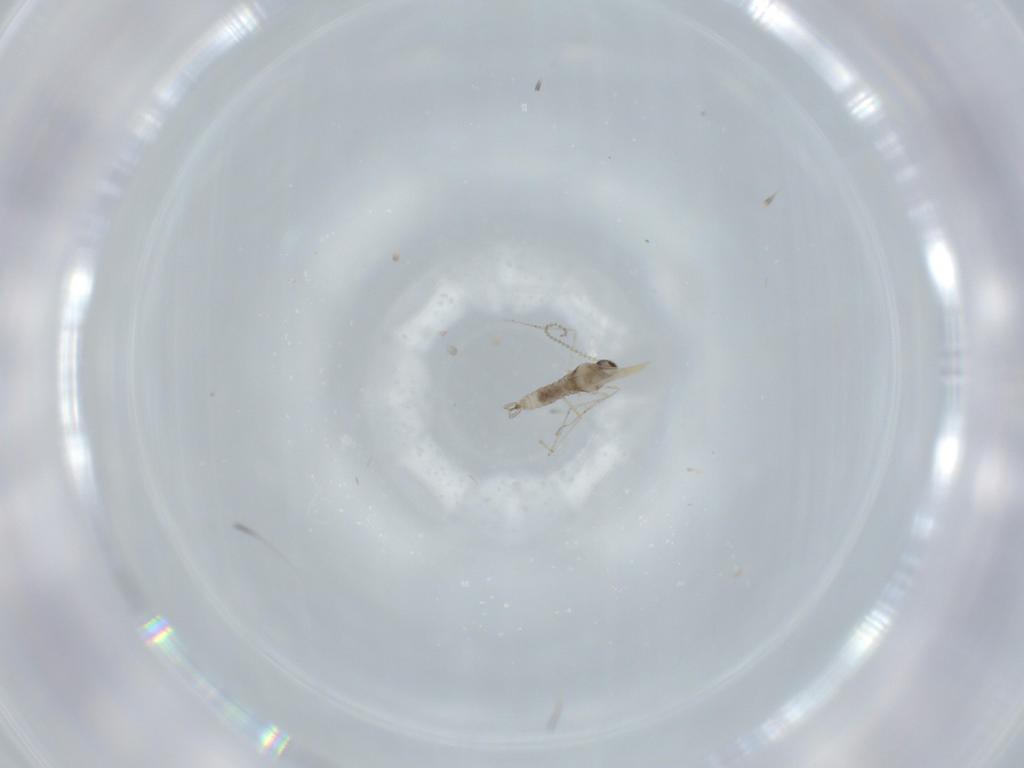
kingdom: Animalia
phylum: Arthropoda
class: Insecta
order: Diptera
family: Cecidomyiidae
